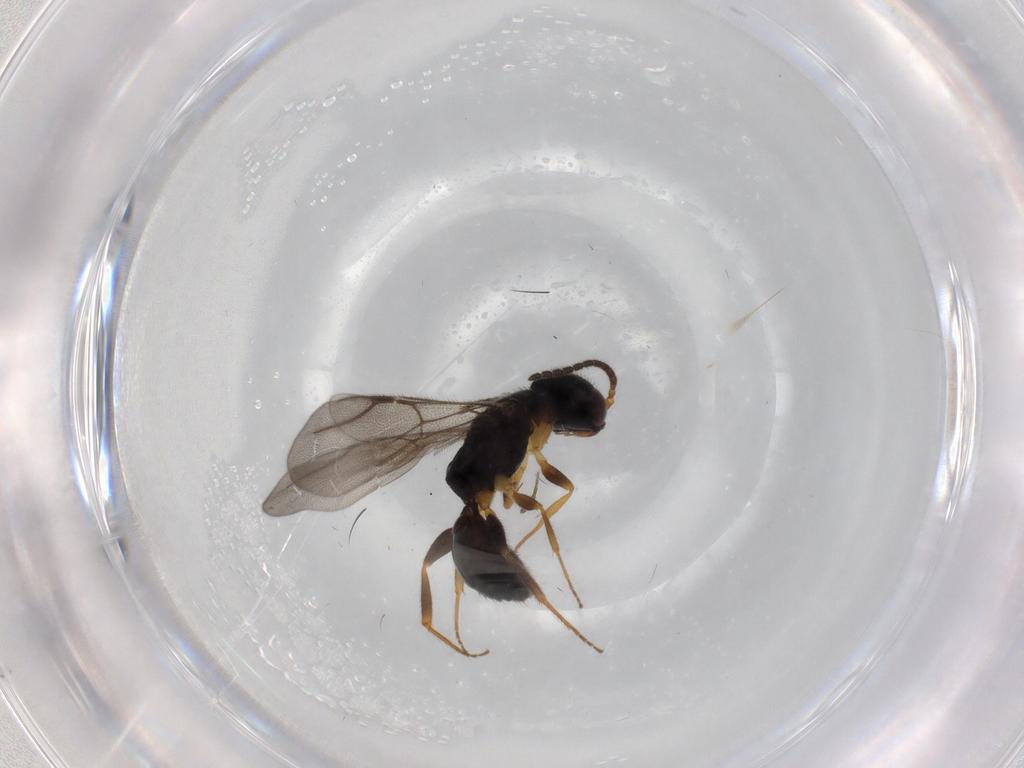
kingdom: Animalia
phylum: Arthropoda
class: Insecta
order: Hymenoptera
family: Bethylidae
